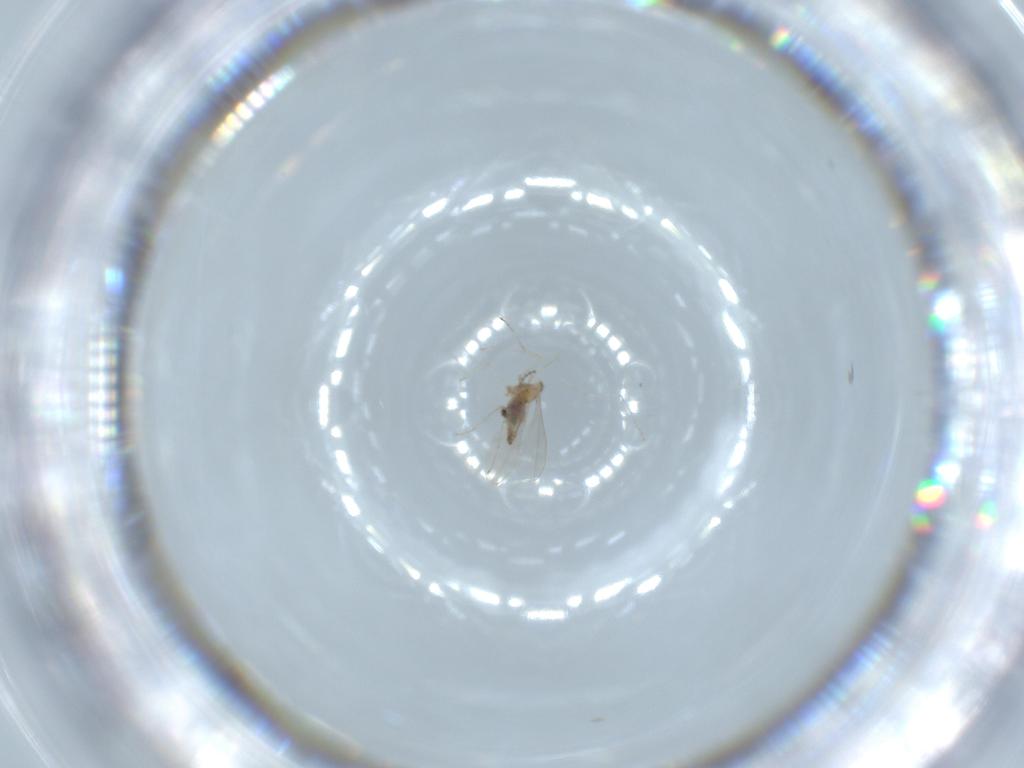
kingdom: Animalia
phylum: Arthropoda
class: Insecta
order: Diptera
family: Cecidomyiidae
